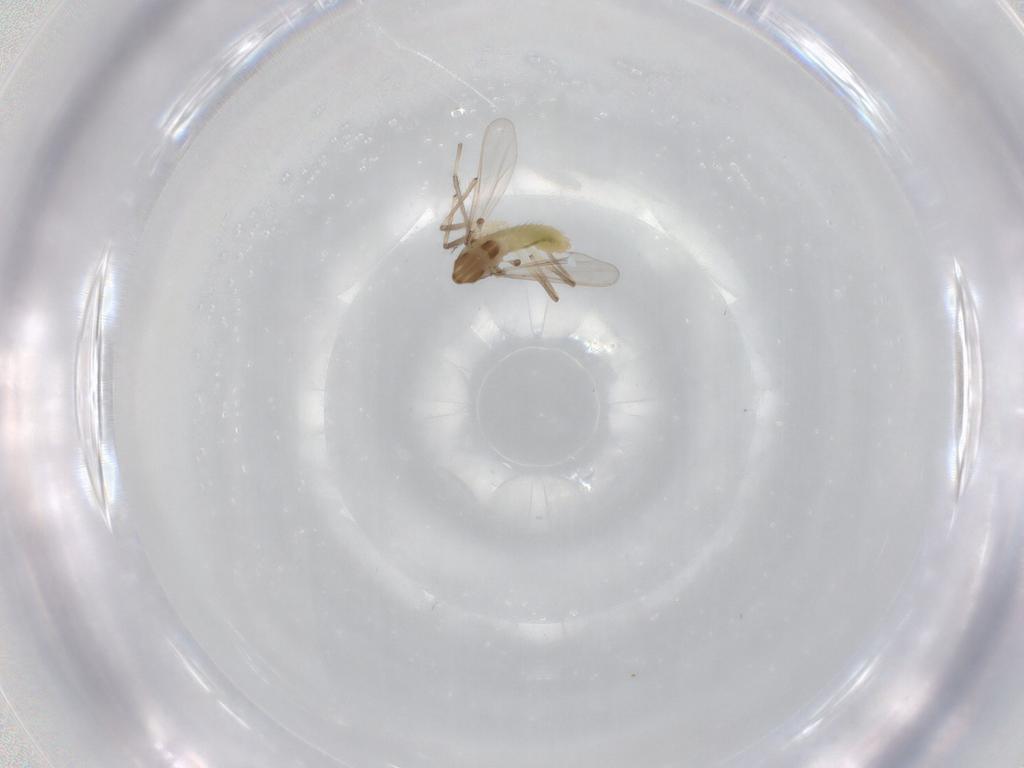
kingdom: Animalia
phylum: Arthropoda
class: Insecta
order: Diptera
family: Chironomidae
